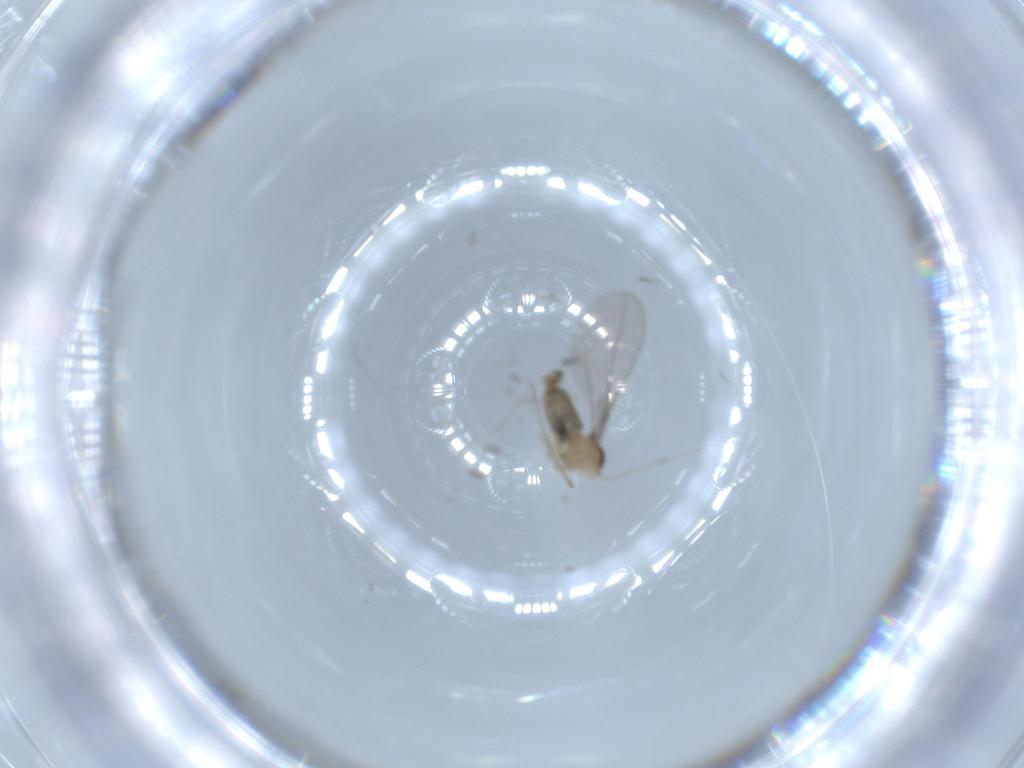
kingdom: Animalia
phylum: Arthropoda
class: Insecta
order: Diptera
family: Cecidomyiidae
